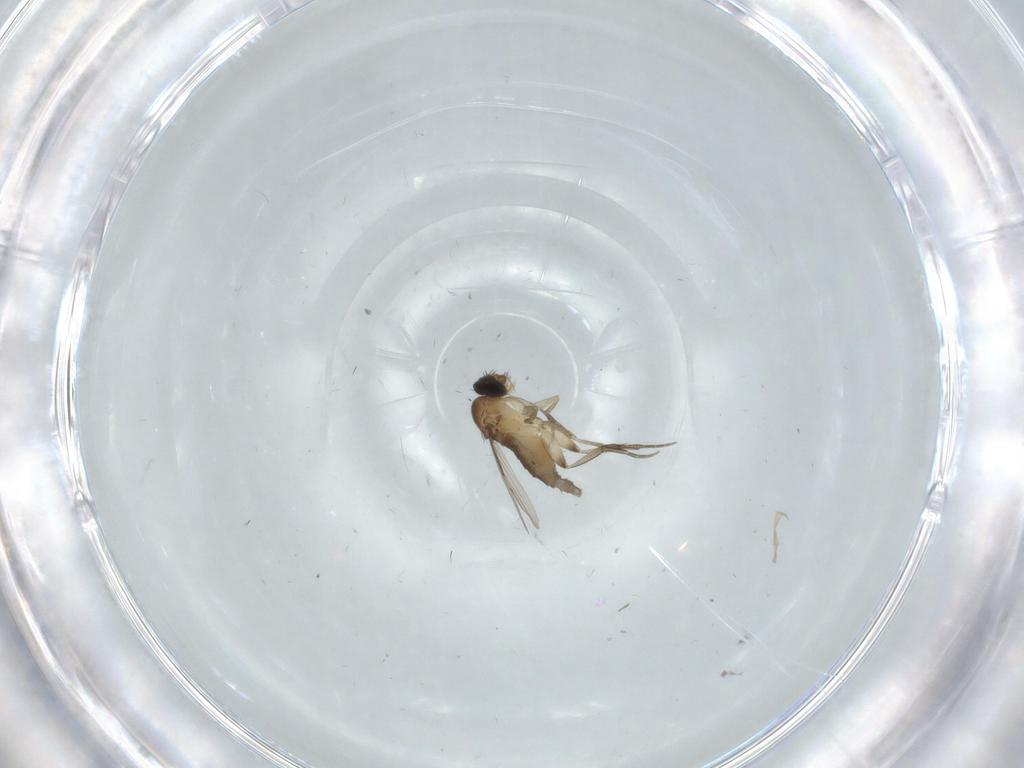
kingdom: Animalia
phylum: Arthropoda
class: Insecta
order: Diptera
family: Phoridae
